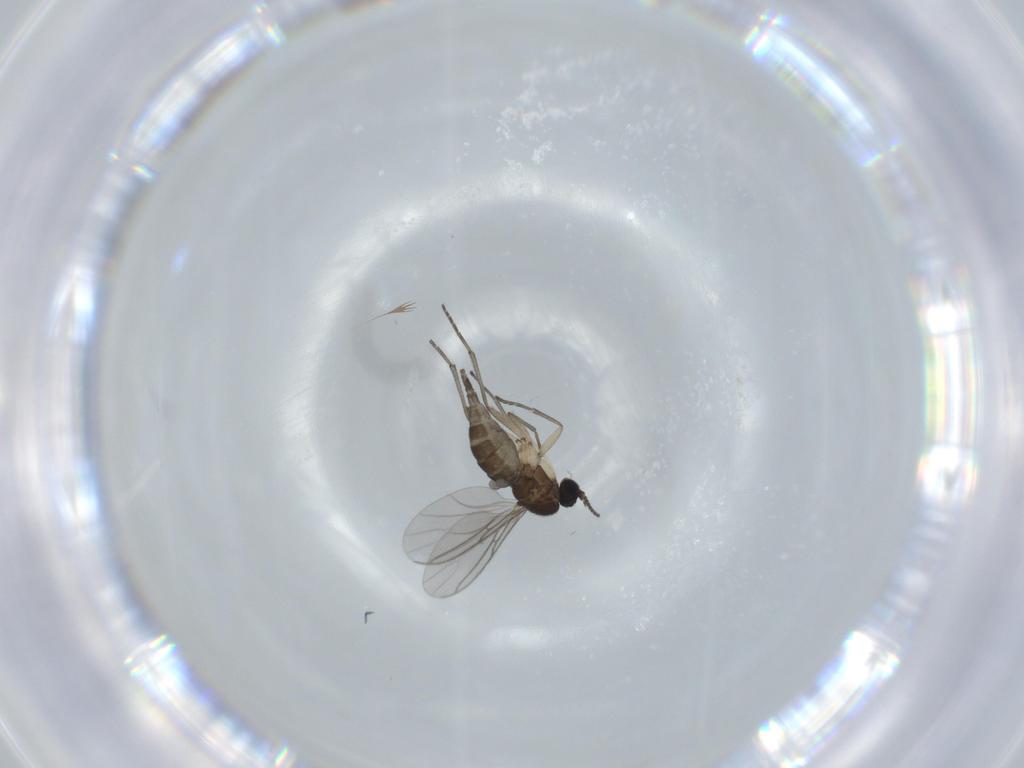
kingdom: Animalia
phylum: Arthropoda
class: Insecta
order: Diptera
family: Sciaridae
